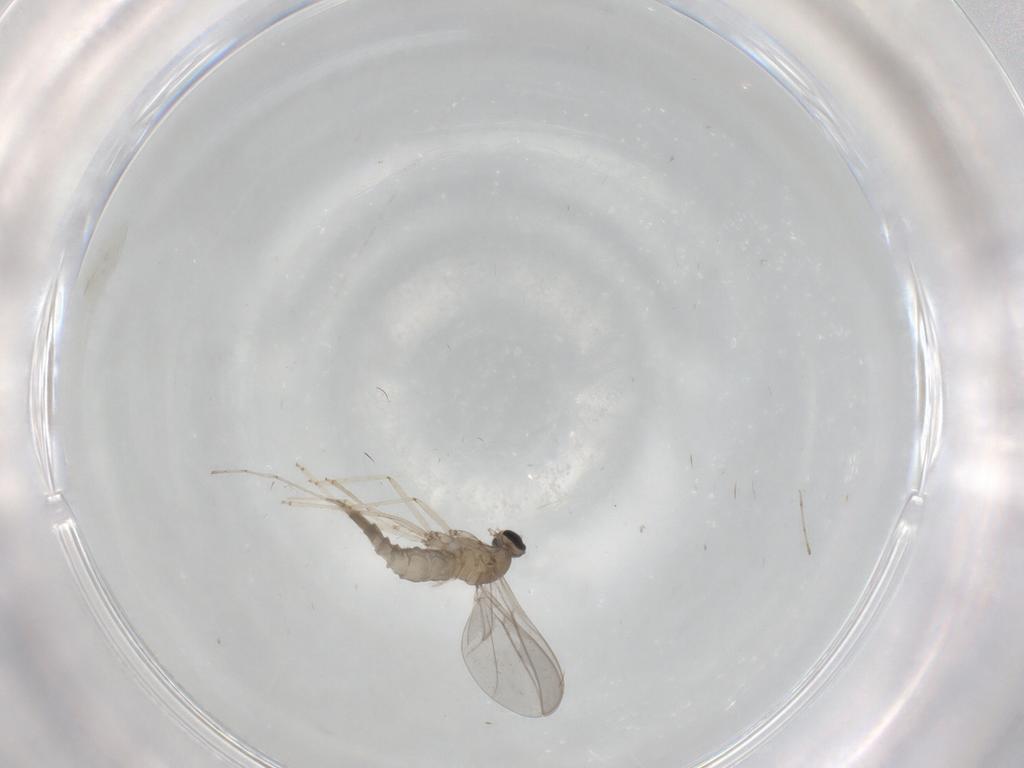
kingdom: Animalia
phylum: Arthropoda
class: Insecta
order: Diptera
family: Cecidomyiidae
